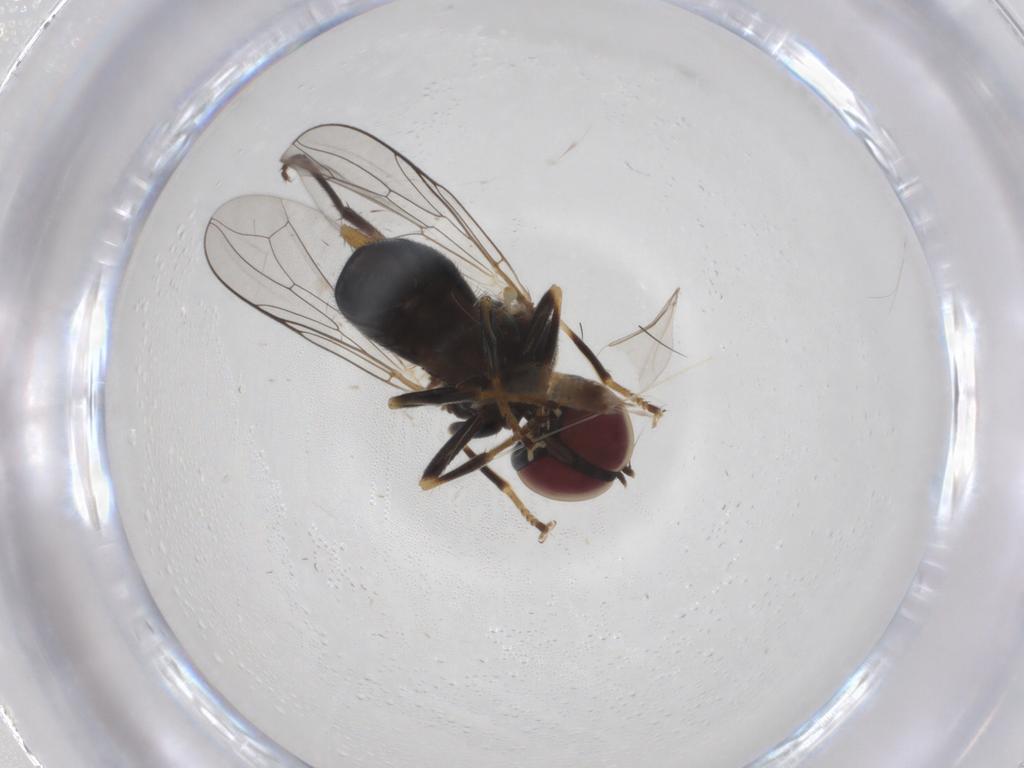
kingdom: Animalia
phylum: Arthropoda
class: Insecta
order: Diptera
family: Pipunculidae
